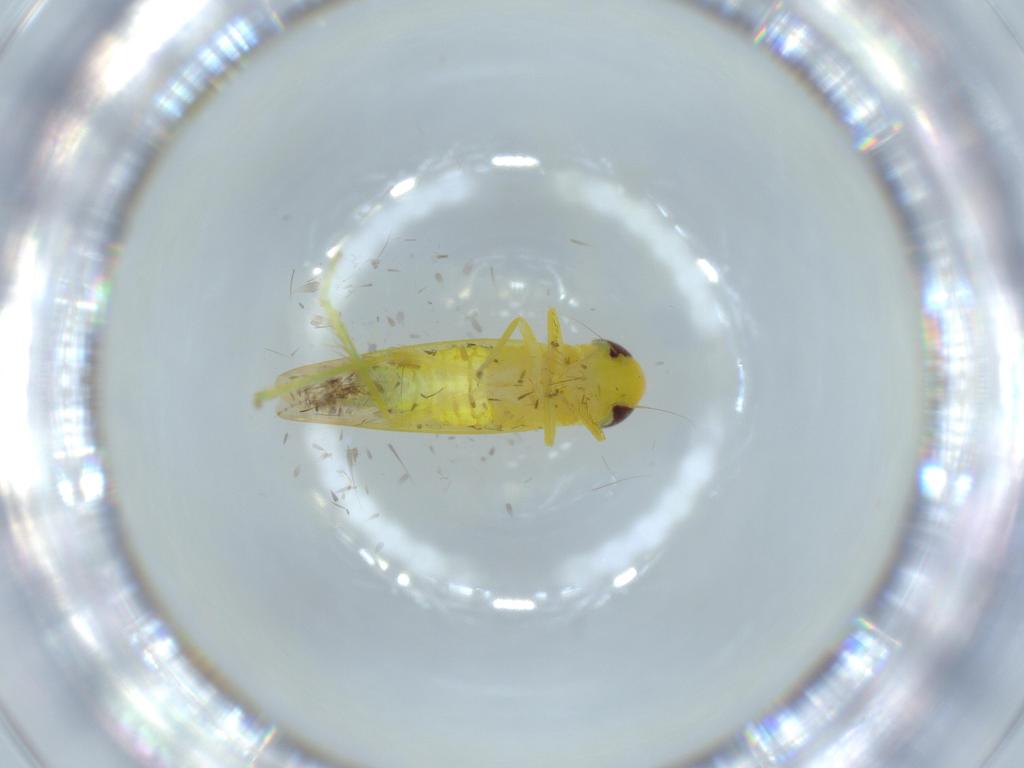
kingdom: Animalia
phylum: Arthropoda
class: Insecta
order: Hemiptera
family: Cicadellidae
